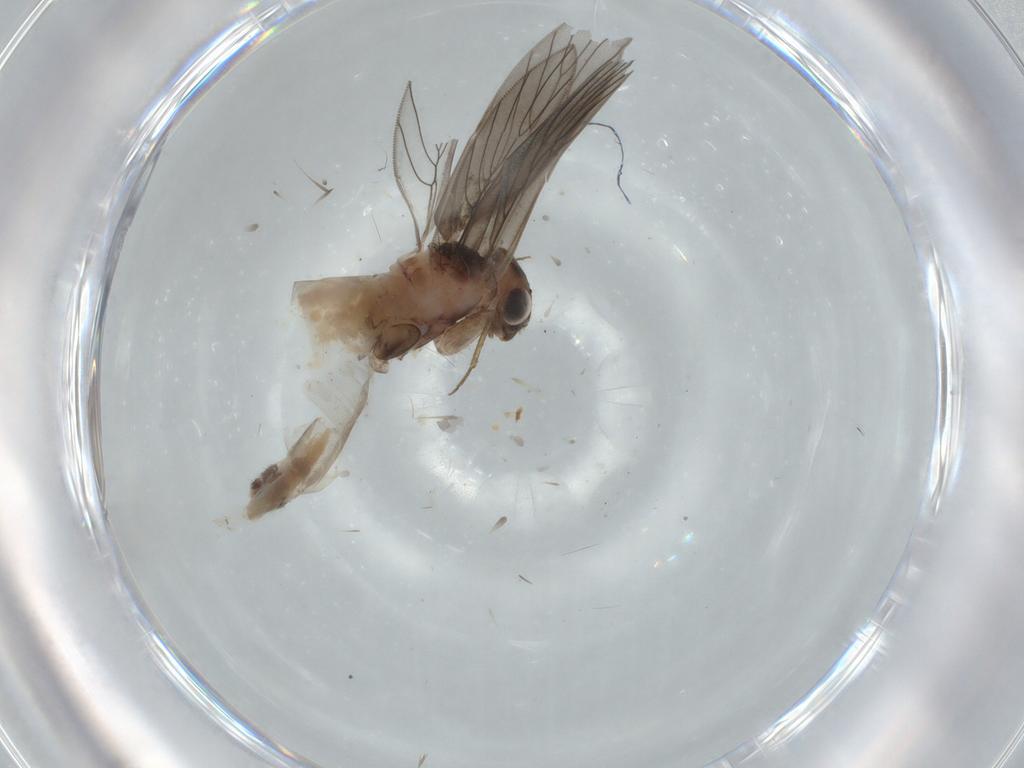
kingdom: Animalia
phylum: Arthropoda
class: Insecta
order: Psocodea
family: Lepidopsocidae
